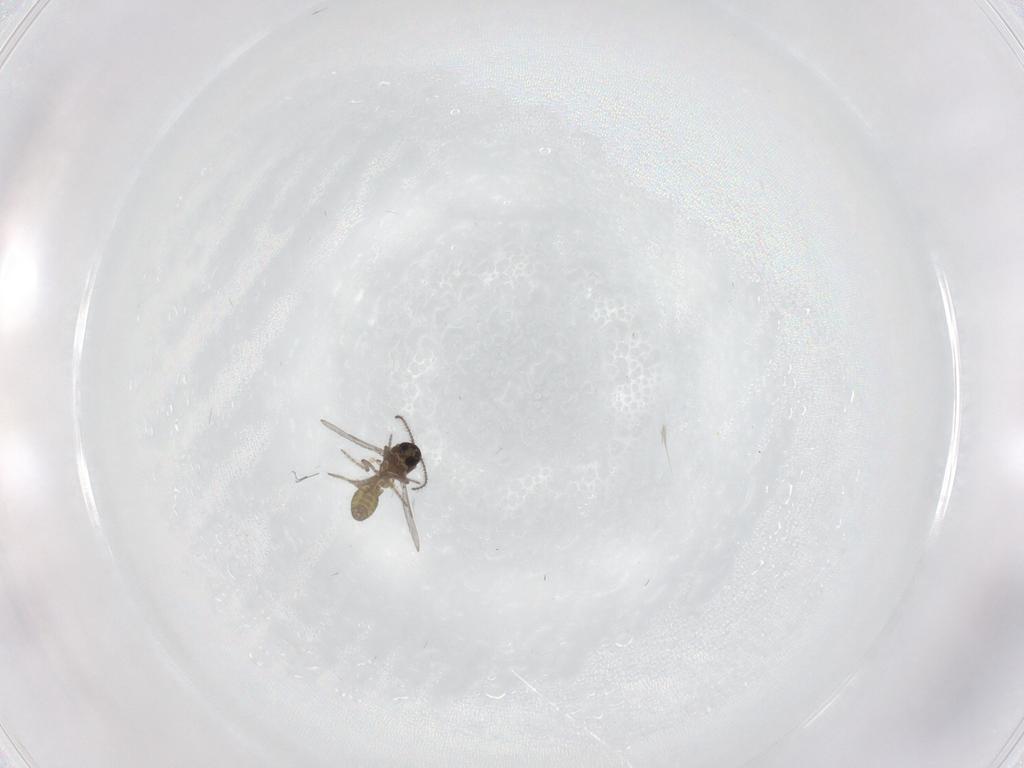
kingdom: Animalia
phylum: Arthropoda
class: Insecta
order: Diptera
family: Ceratopogonidae
